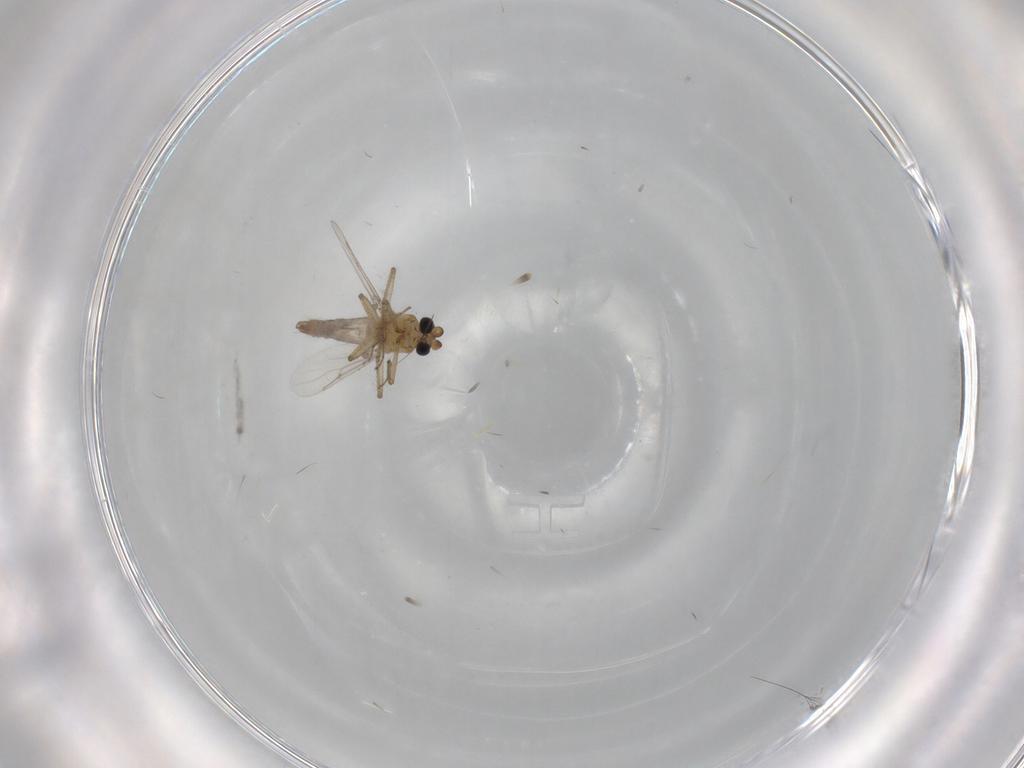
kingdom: Animalia
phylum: Arthropoda
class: Insecta
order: Diptera
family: Ceratopogonidae
